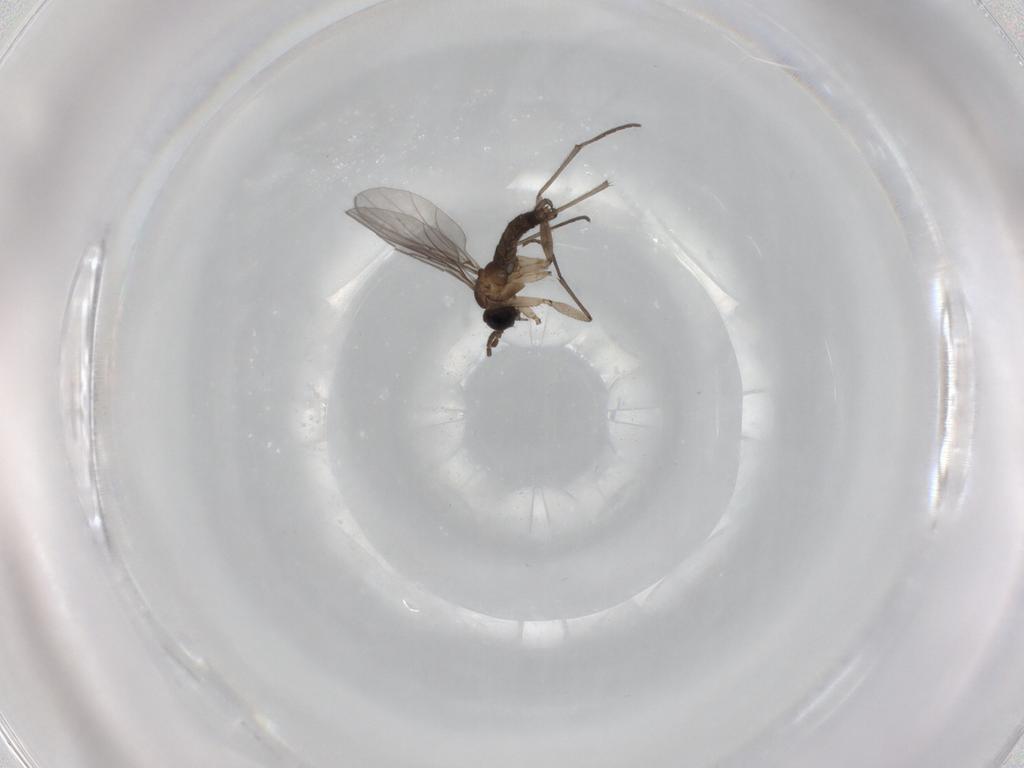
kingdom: Animalia
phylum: Arthropoda
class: Insecta
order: Diptera
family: Sciaridae
